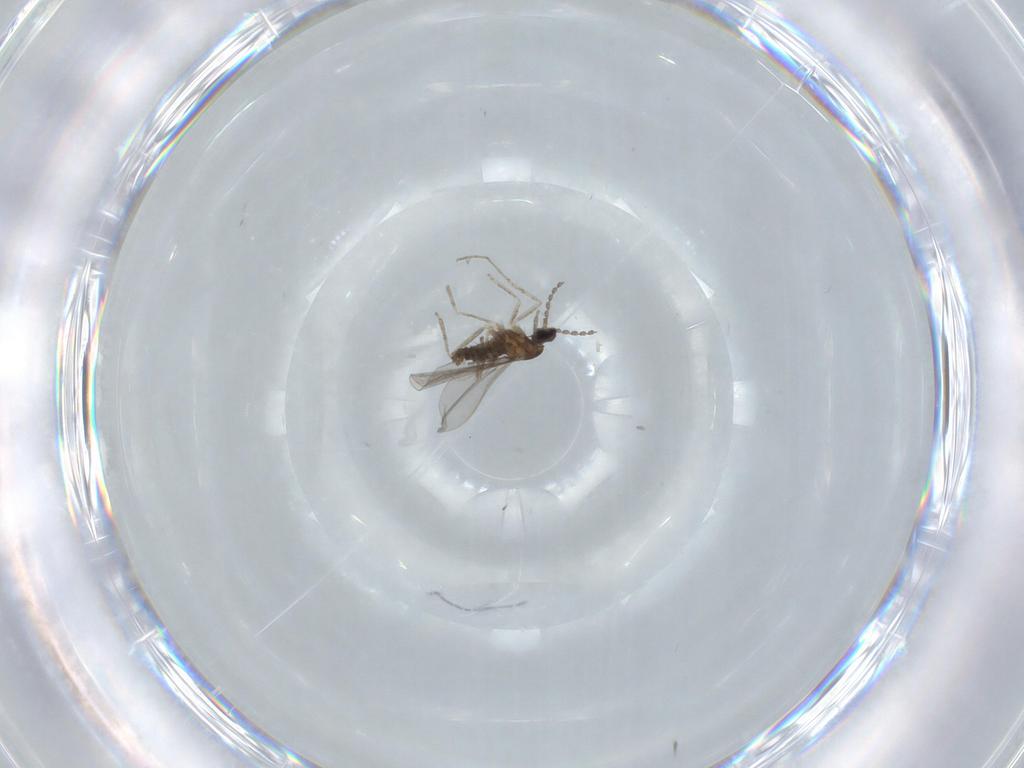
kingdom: Animalia
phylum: Arthropoda
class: Insecta
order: Diptera
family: Cecidomyiidae
